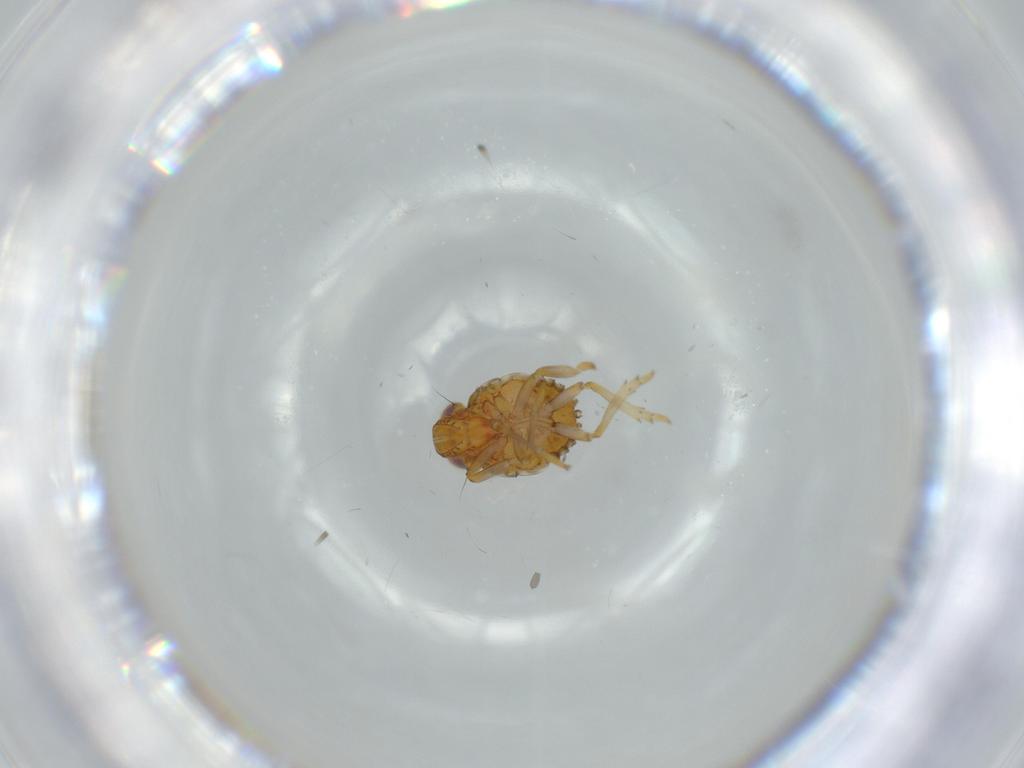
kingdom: Animalia
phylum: Arthropoda
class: Insecta
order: Hemiptera
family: Issidae
